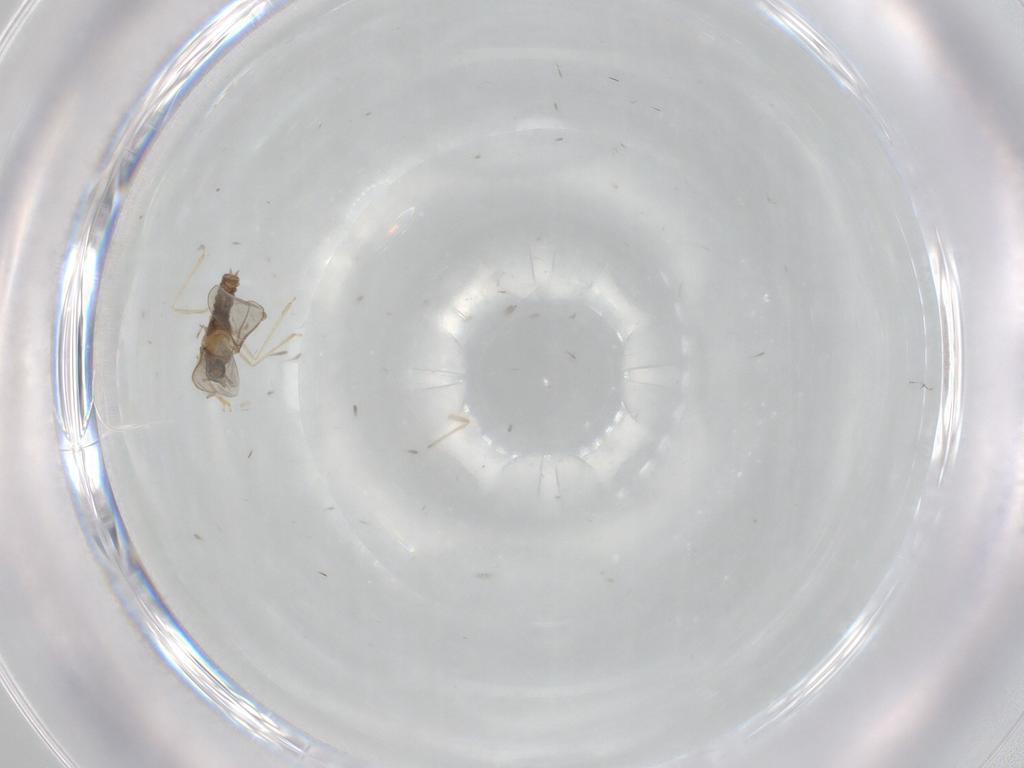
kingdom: Animalia
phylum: Arthropoda
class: Insecta
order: Diptera
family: Chironomidae
